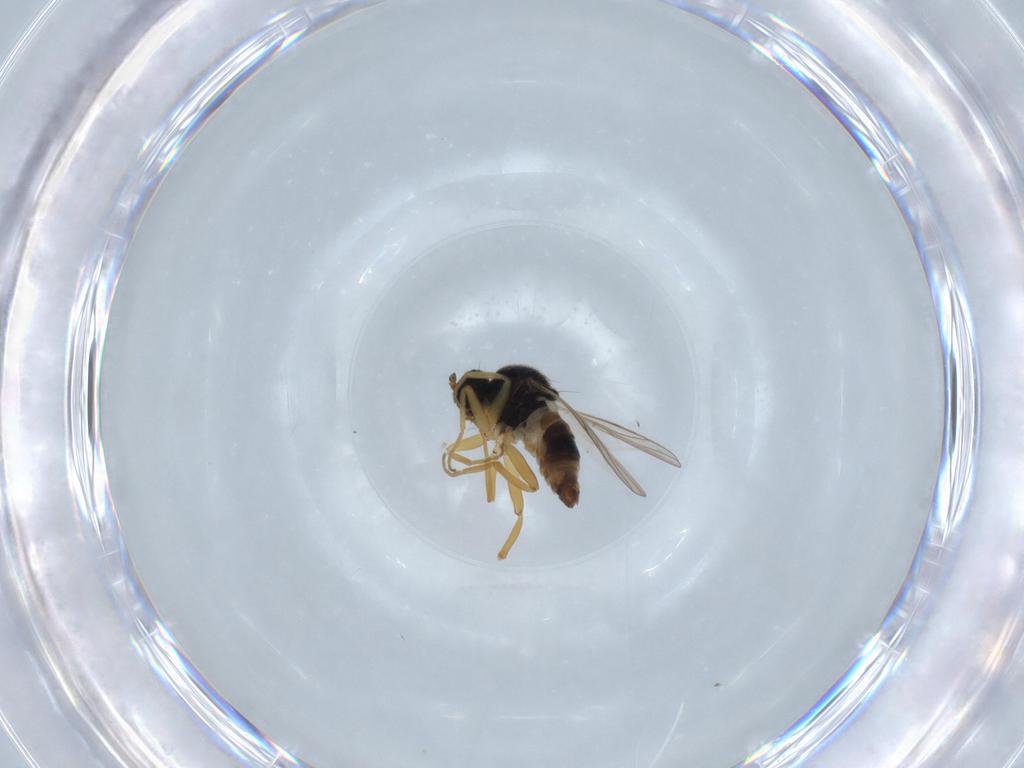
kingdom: Animalia
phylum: Arthropoda
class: Insecta
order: Diptera
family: Hybotidae
